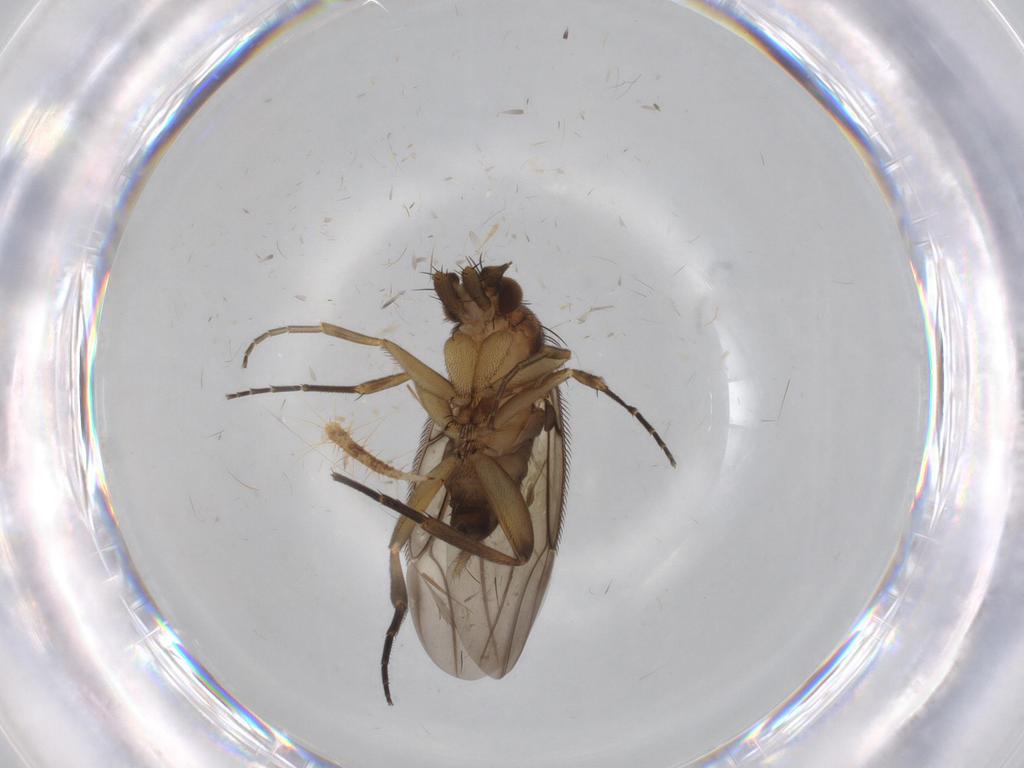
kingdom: Animalia
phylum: Arthropoda
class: Insecta
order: Diptera
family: Phoridae
